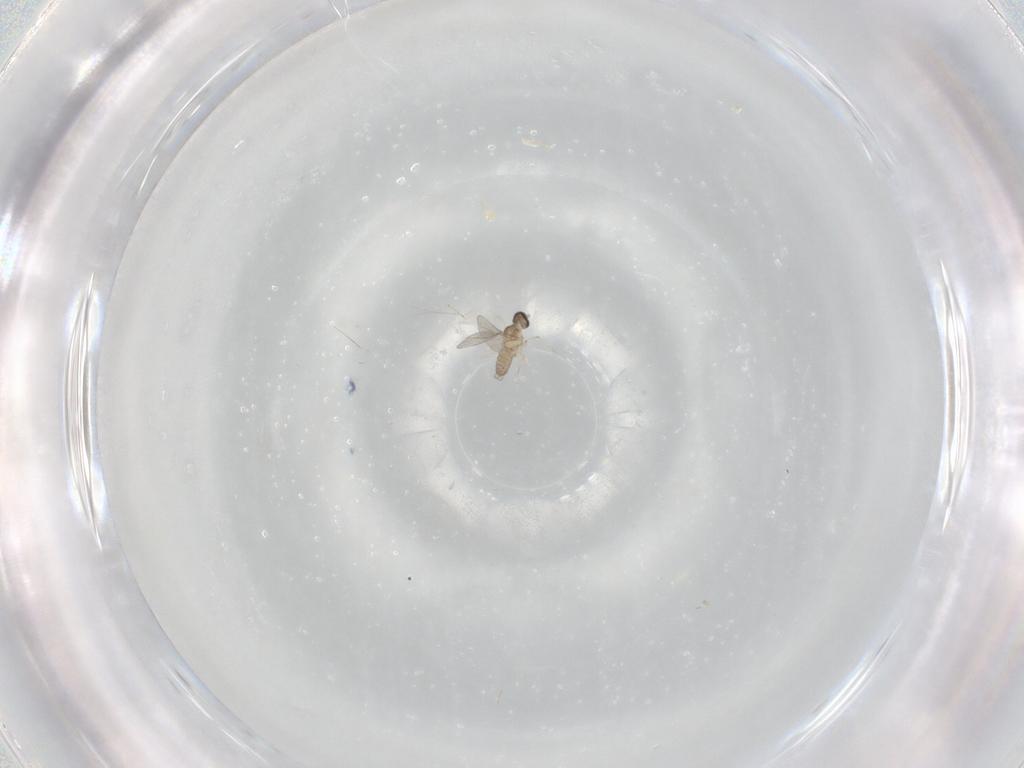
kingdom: Animalia
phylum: Arthropoda
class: Insecta
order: Diptera
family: Cecidomyiidae
